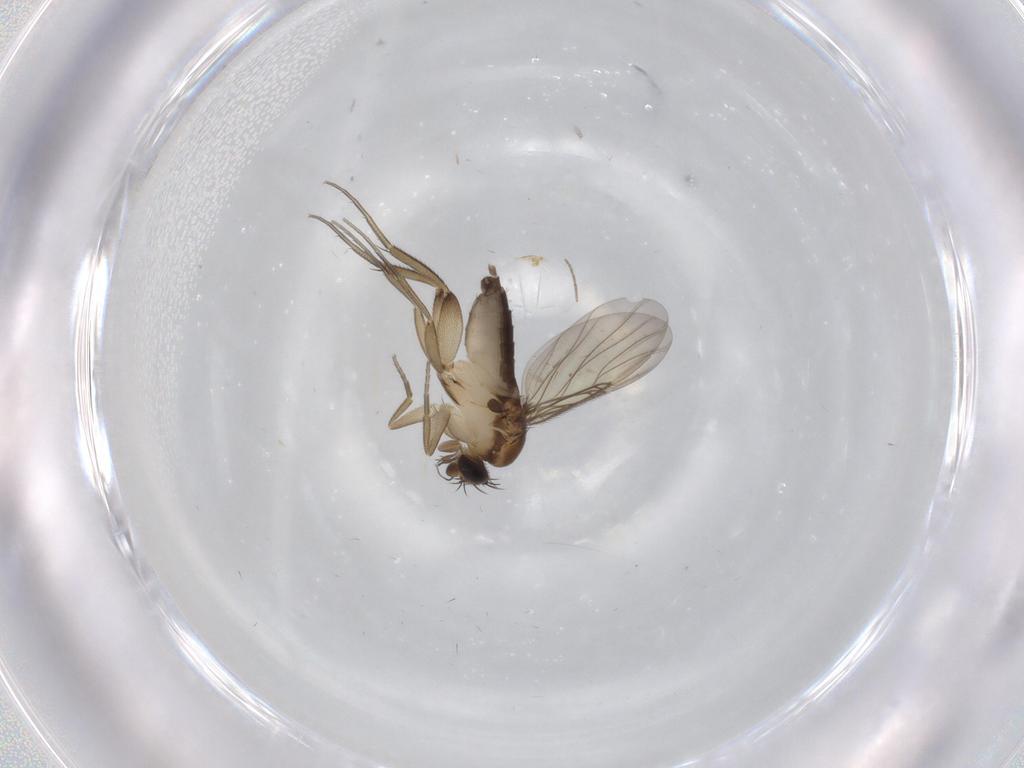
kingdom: Animalia
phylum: Arthropoda
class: Insecta
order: Diptera
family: Phoridae
